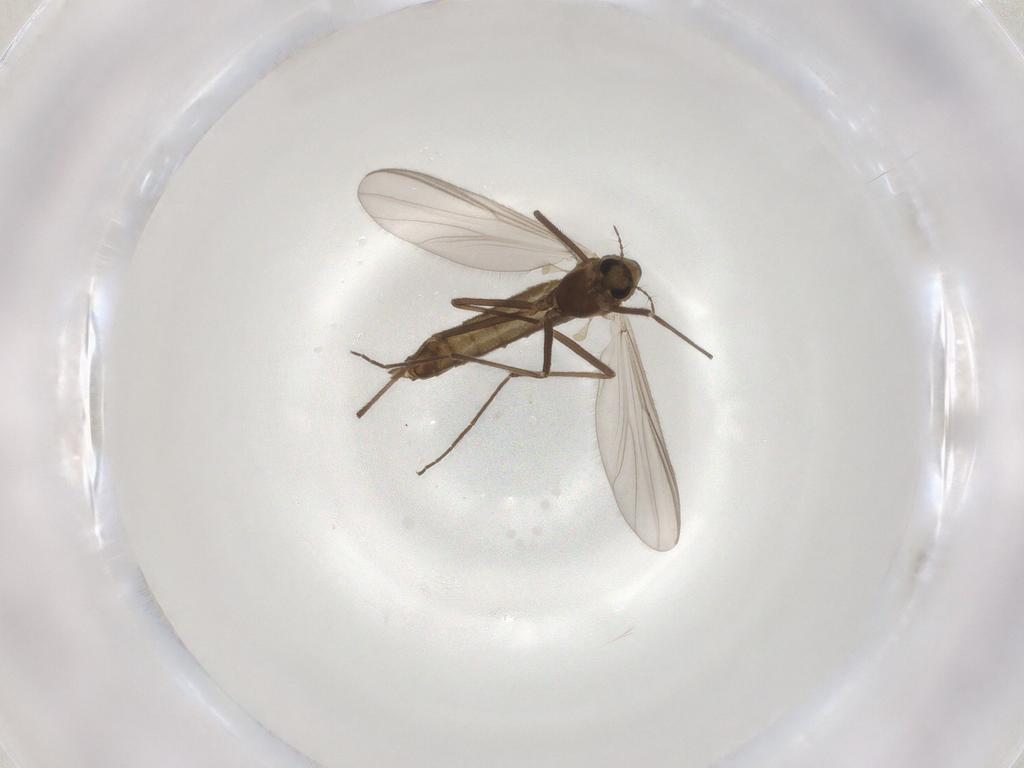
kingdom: Animalia
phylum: Arthropoda
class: Insecta
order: Diptera
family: Chironomidae
